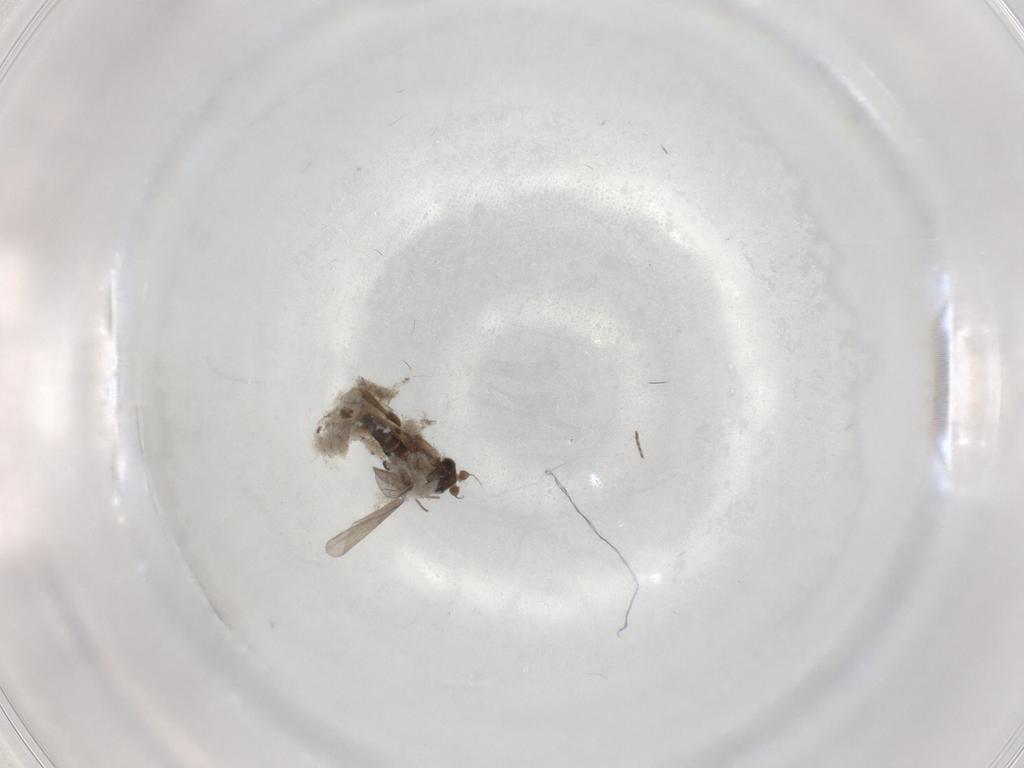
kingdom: Animalia
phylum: Arthropoda
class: Insecta
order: Diptera
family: Phoridae
